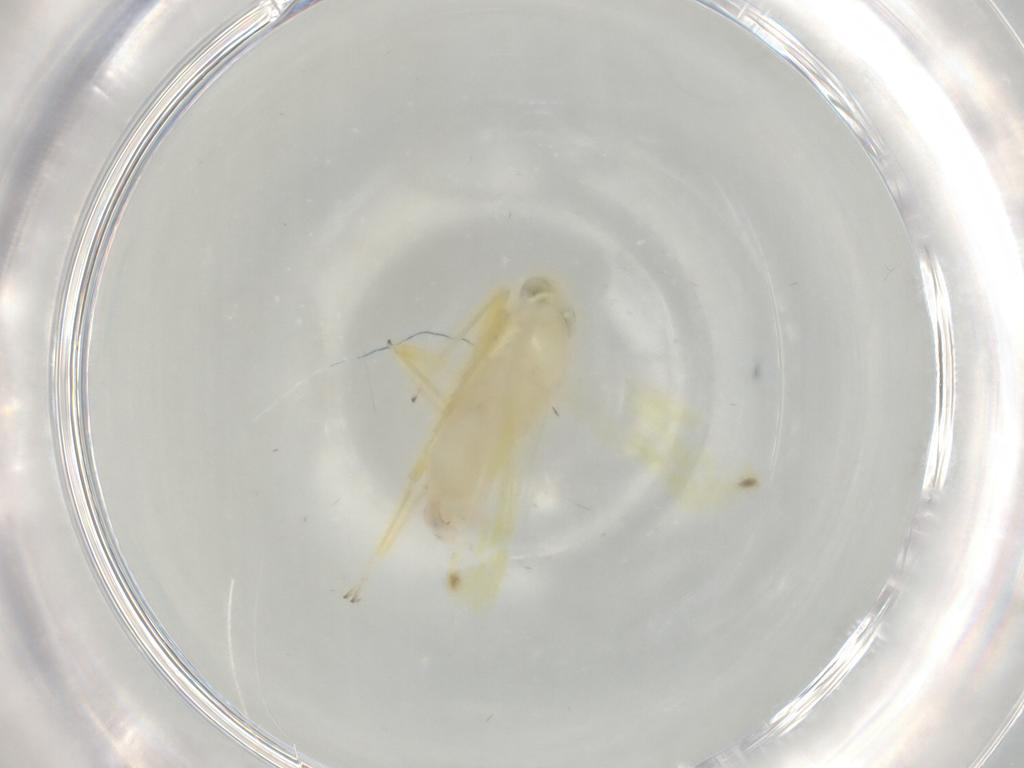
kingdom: Animalia
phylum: Arthropoda
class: Insecta
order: Hemiptera
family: Cicadellidae
